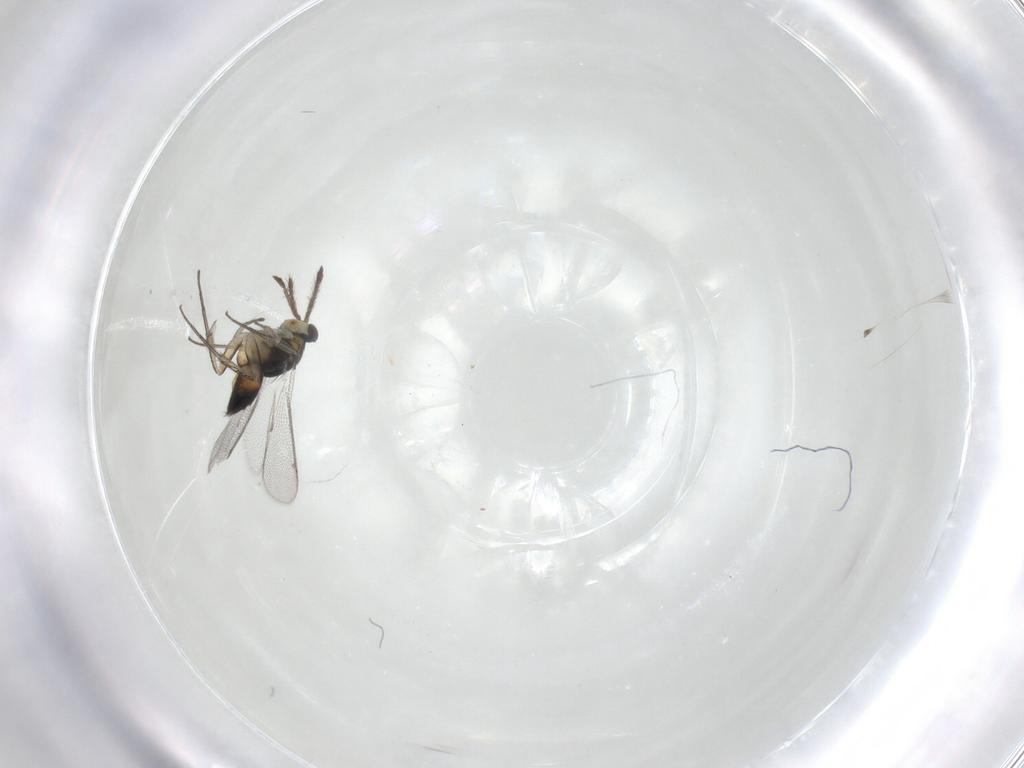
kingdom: Animalia
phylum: Arthropoda
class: Insecta
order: Hymenoptera
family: Eulophidae
